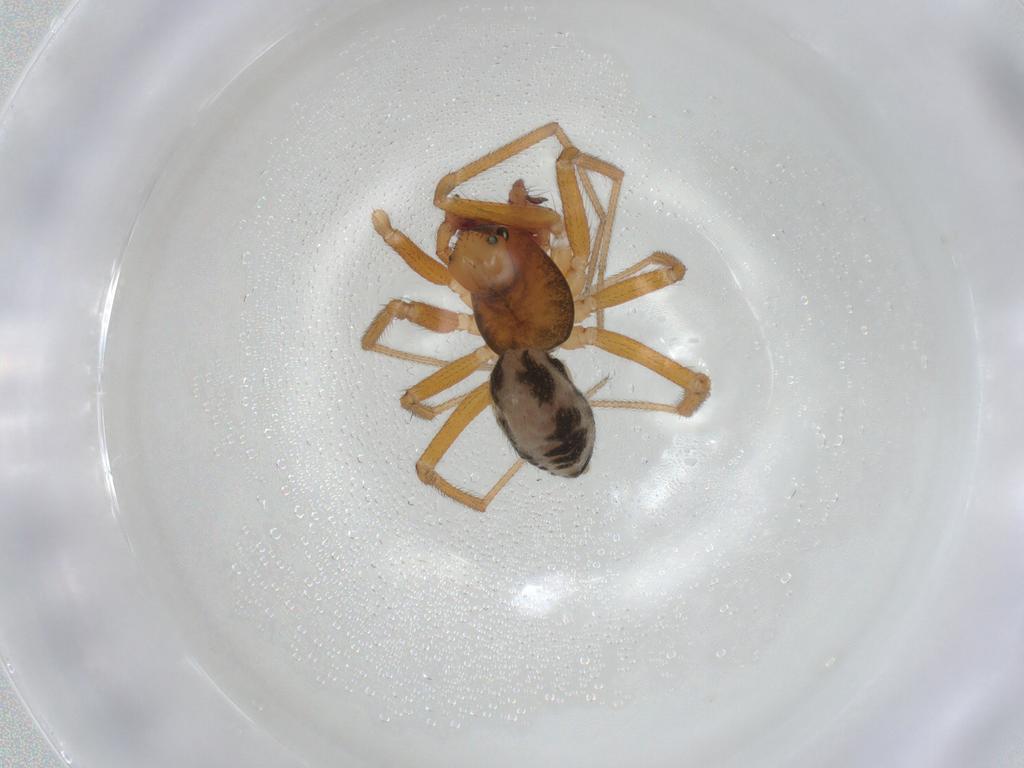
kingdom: Animalia
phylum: Arthropoda
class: Arachnida
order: Araneae
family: Linyphiidae
